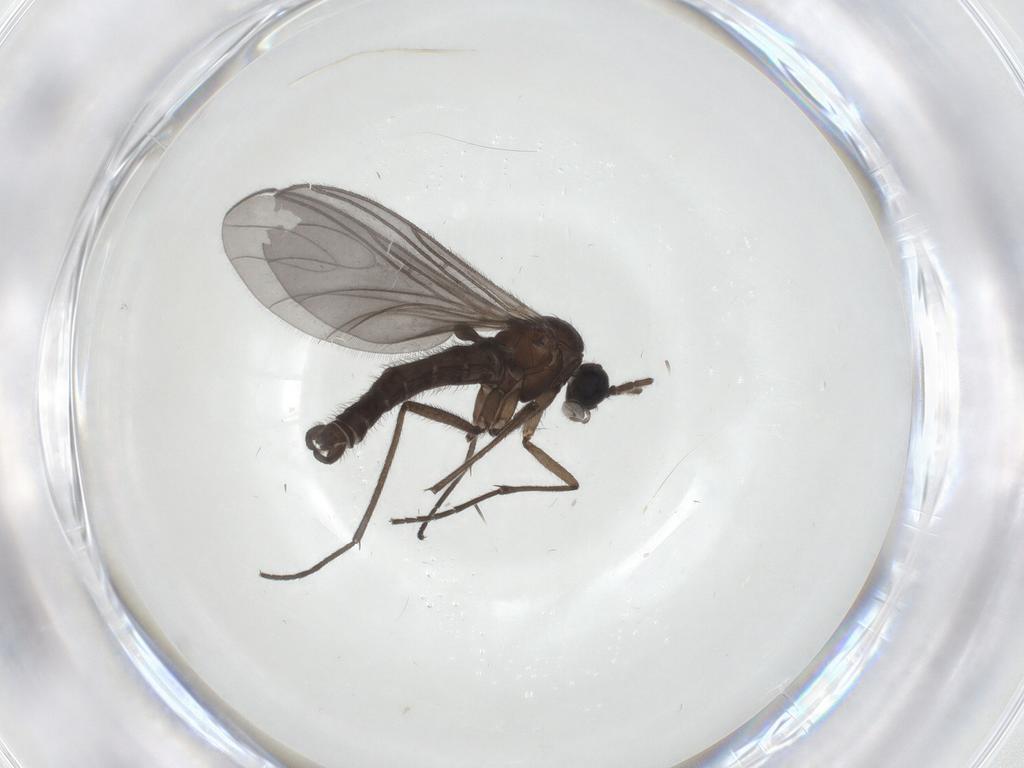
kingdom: Animalia
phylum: Arthropoda
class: Insecta
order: Diptera
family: Sciaridae
